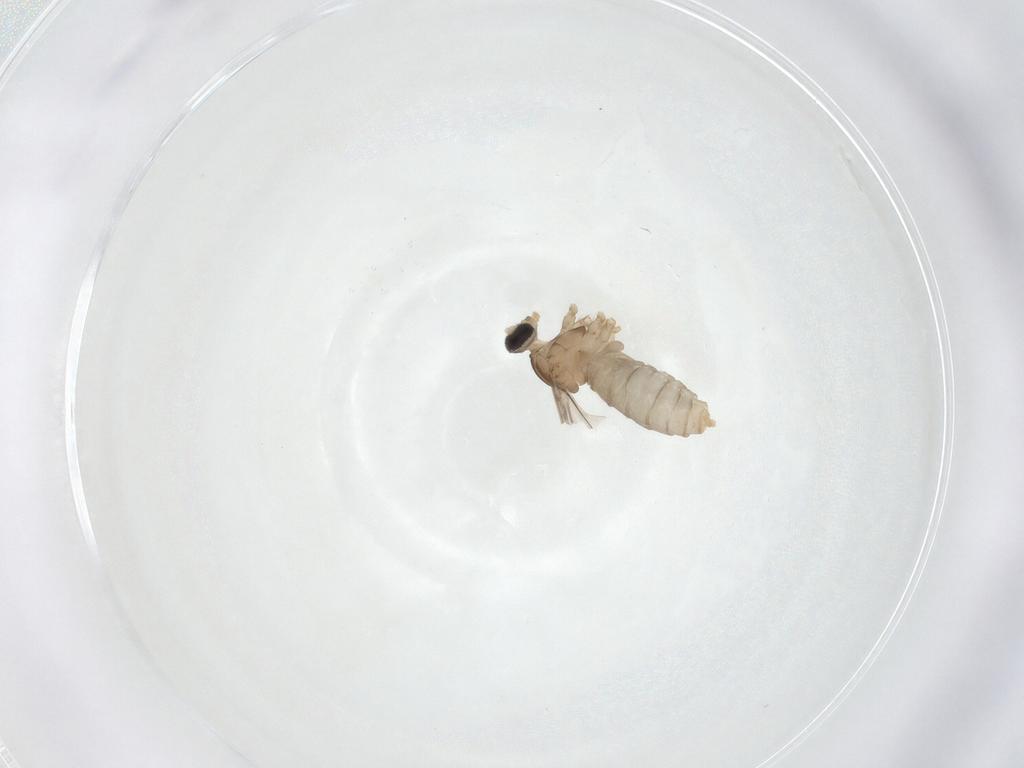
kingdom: Animalia
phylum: Arthropoda
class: Insecta
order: Diptera
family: Cecidomyiidae
